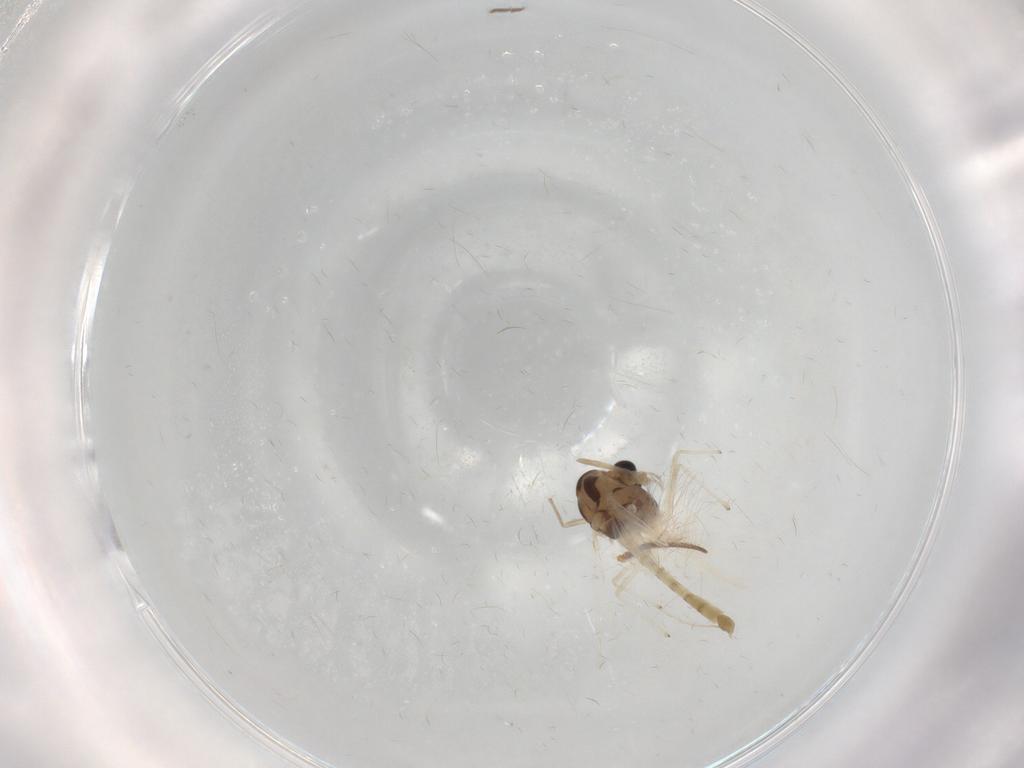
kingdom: Animalia
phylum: Arthropoda
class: Insecta
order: Diptera
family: Chironomidae
